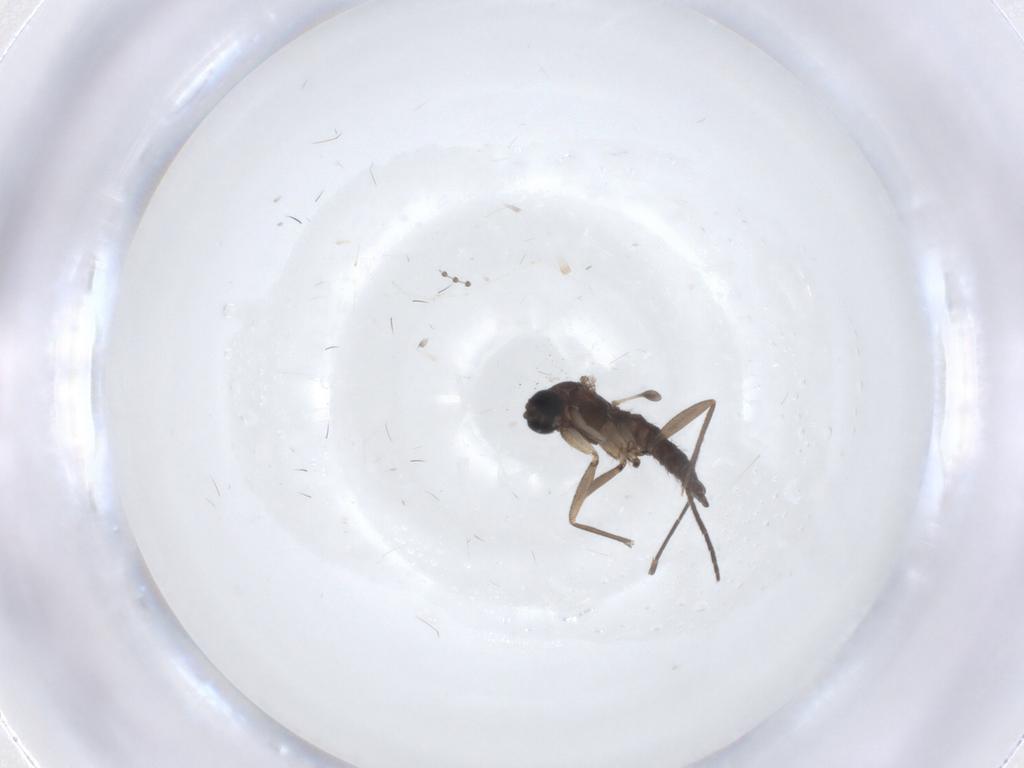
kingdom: Animalia
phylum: Arthropoda
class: Insecta
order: Diptera
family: Sciaridae
